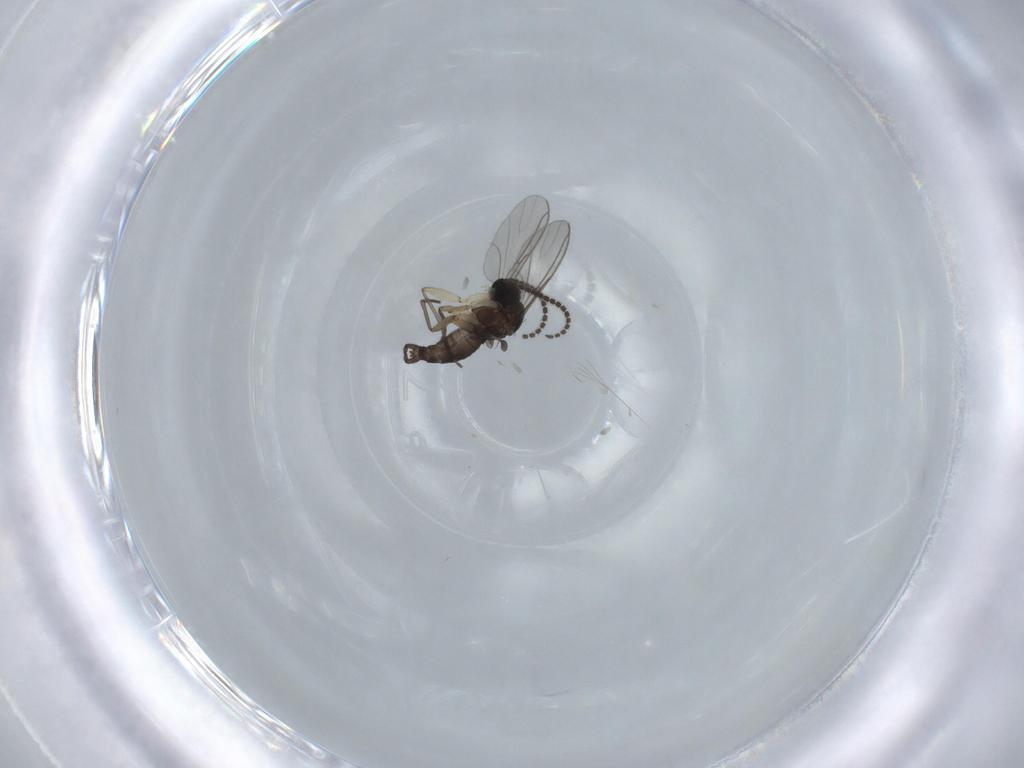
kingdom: Animalia
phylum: Arthropoda
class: Insecta
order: Diptera
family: Sciaridae
